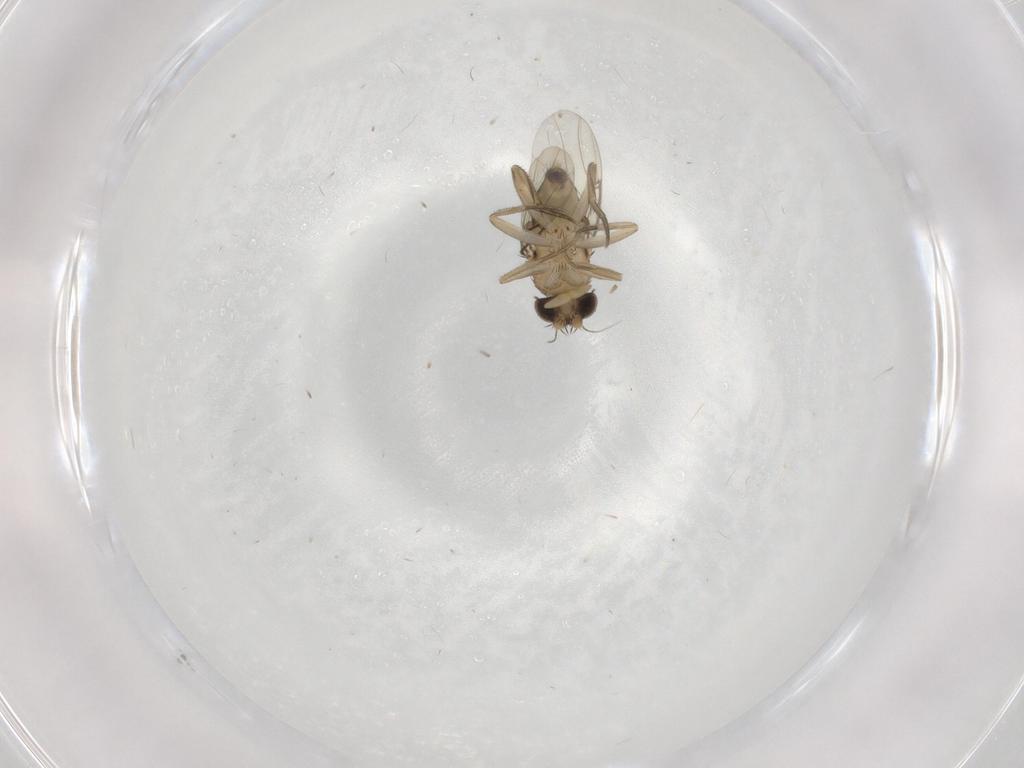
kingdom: Animalia
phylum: Arthropoda
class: Insecta
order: Diptera
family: Phoridae
